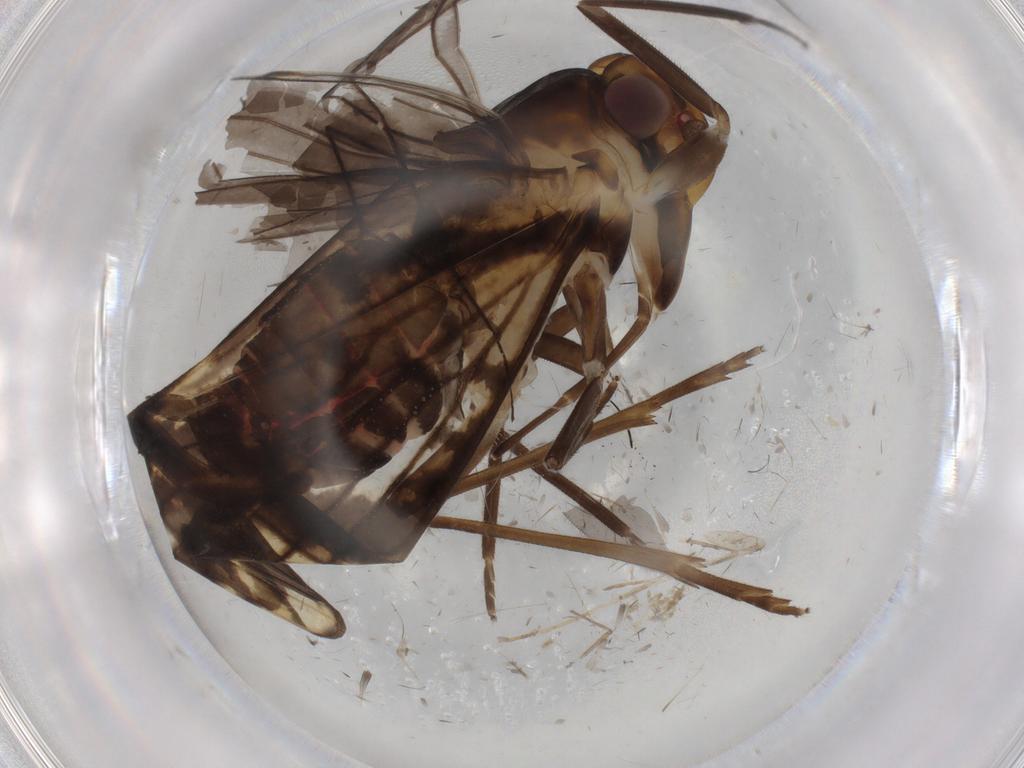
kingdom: Animalia
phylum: Arthropoda
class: Insecta
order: Hemiptera
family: Cixiidae
